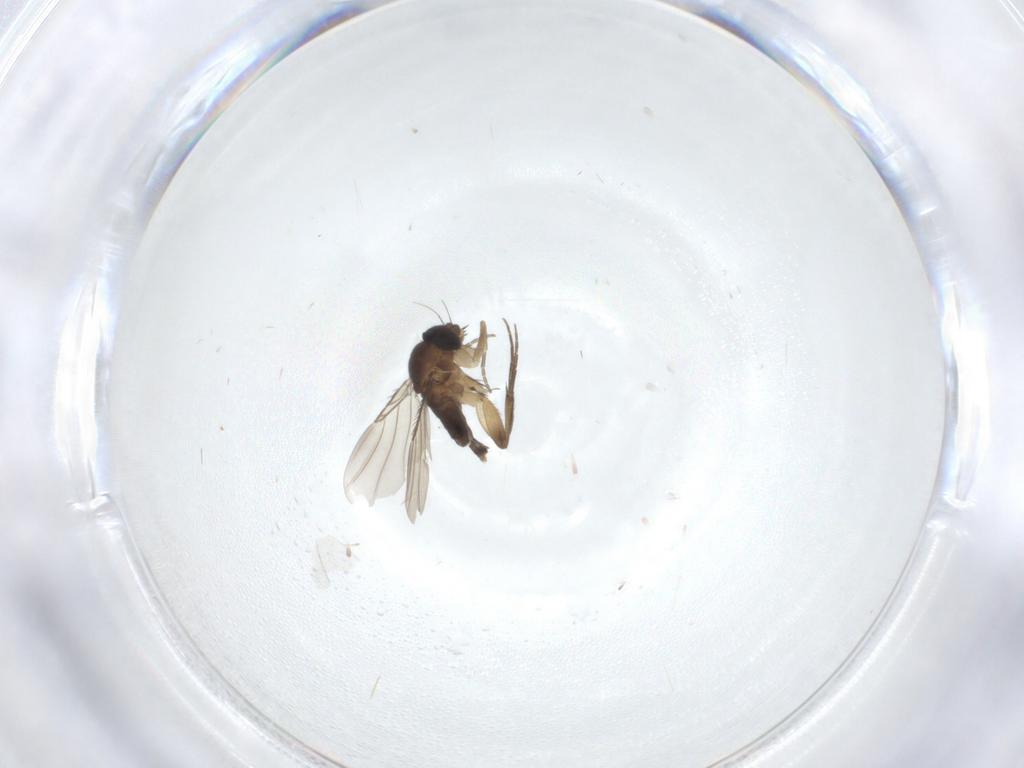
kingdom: Animalia
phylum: Arthropoda
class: Insecta
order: Diptera
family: Phoridae
